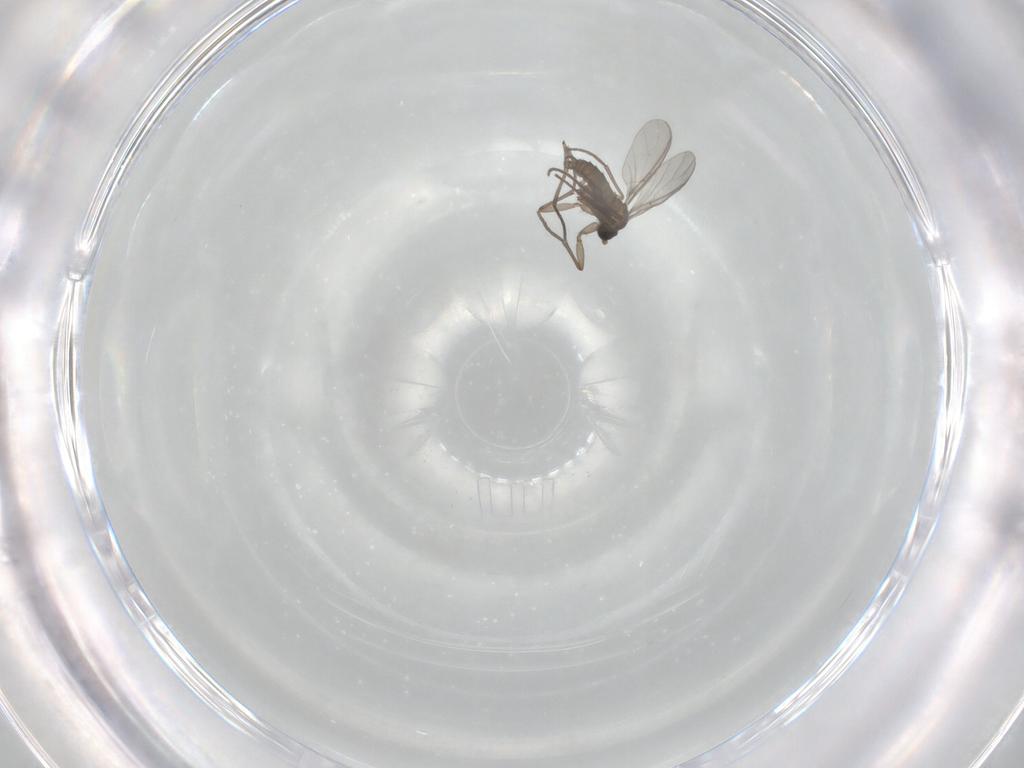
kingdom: Animalia
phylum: Arthropoda
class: Insecta
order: Diptera
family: Sciaridae
